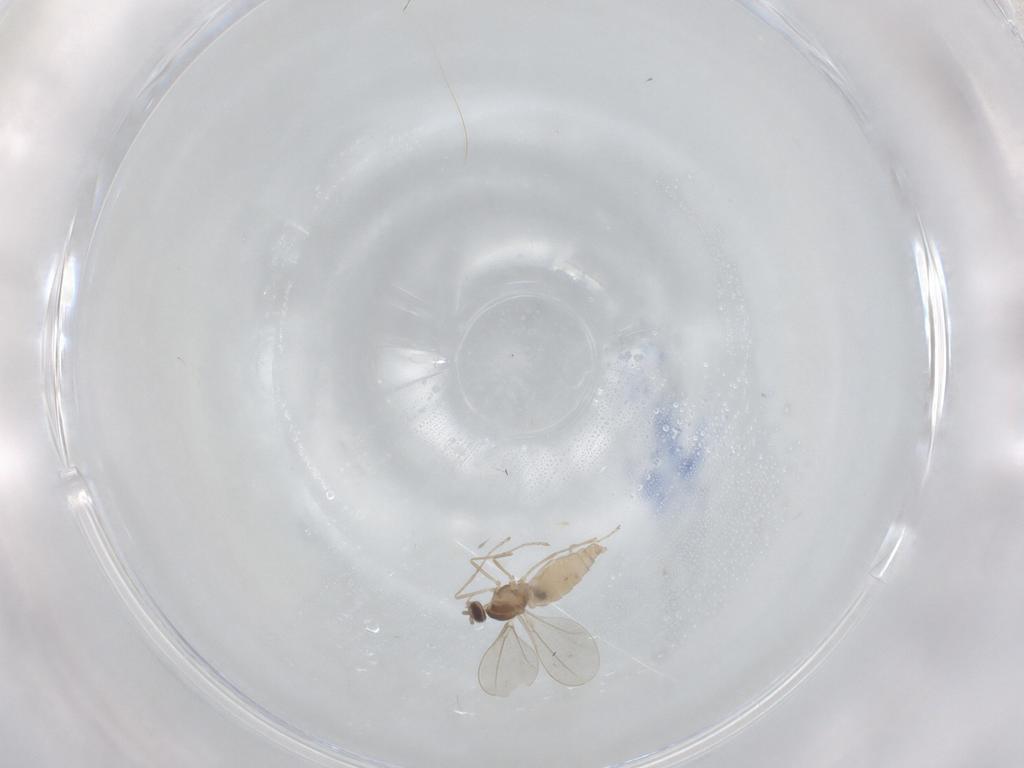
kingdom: Animalia
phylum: Arthropoda
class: Insecta
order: Diptera
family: Cecidomyiidae
